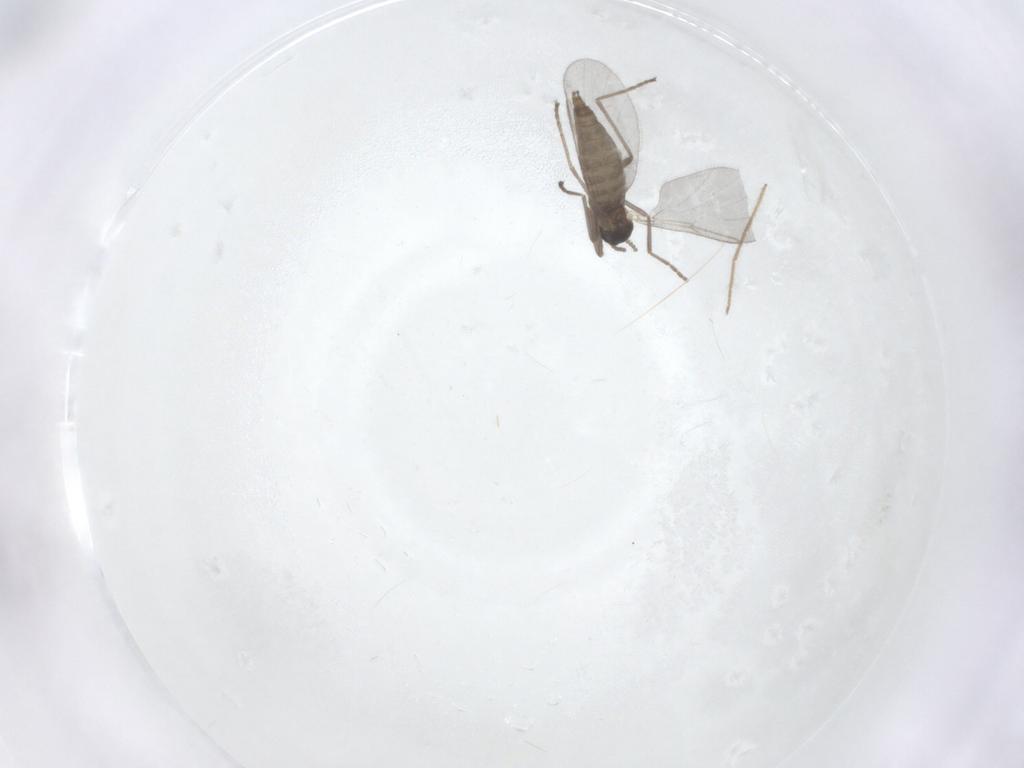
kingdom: Animalia
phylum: Arthropoda
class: Insecta
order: Diptera
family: Cecidomyiidae
